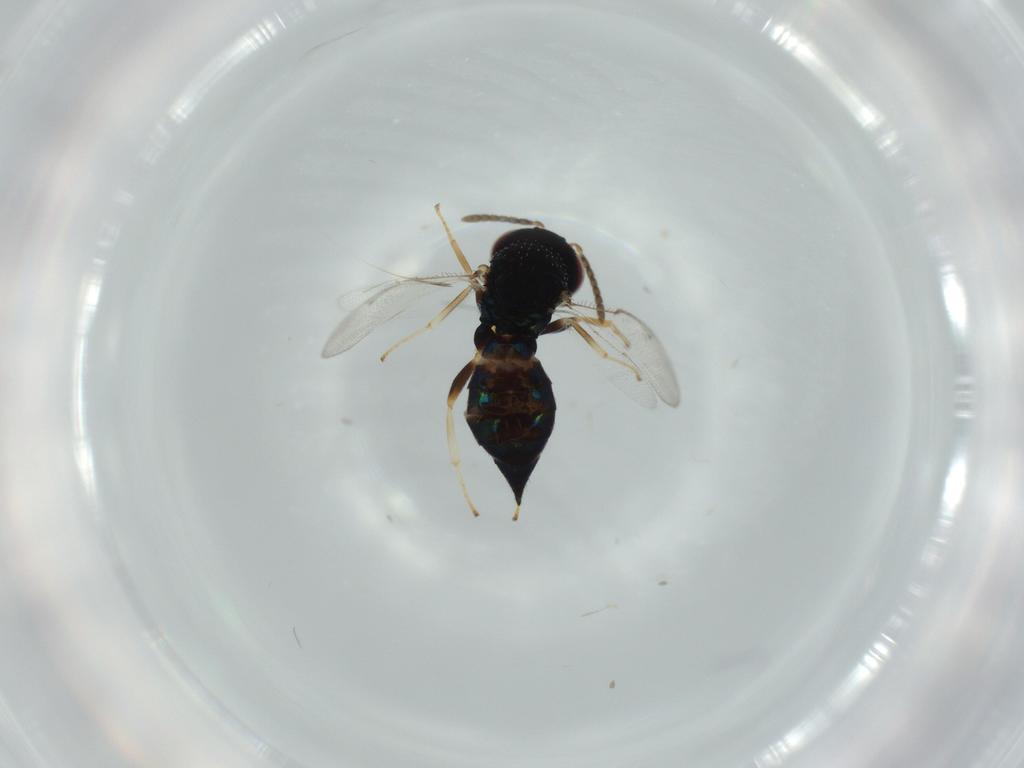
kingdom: Animalia
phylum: Arthropoda
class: Insecta
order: Hymenoptera
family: Pteromalidae
